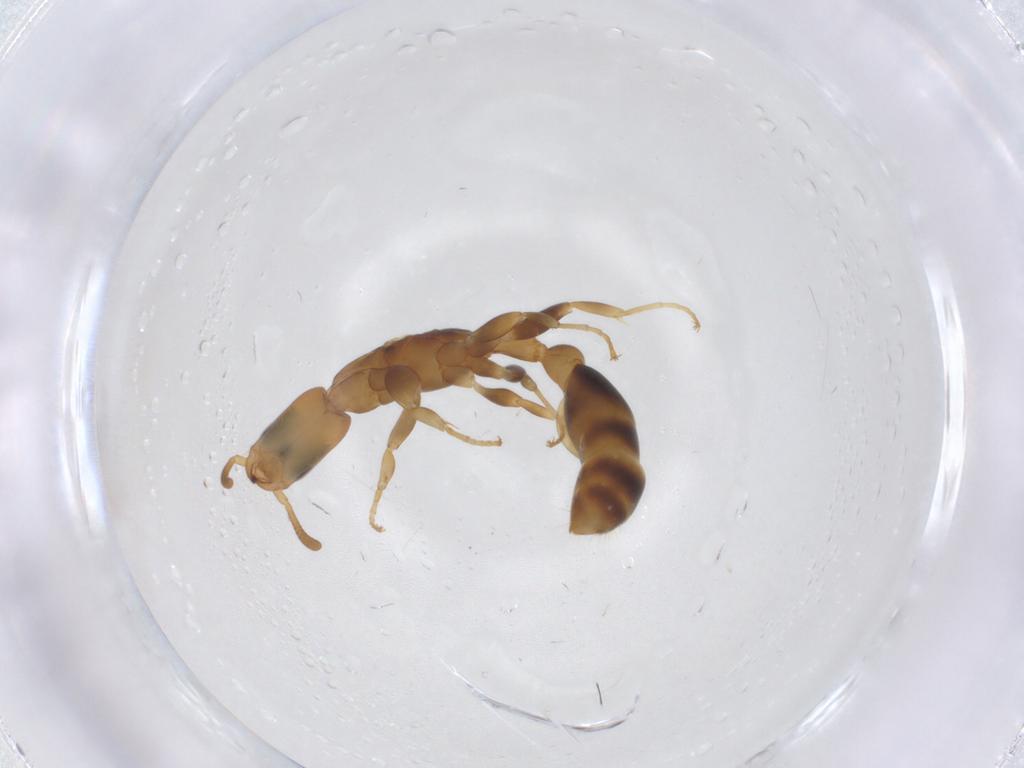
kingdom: Animalia
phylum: Arthropoda
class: Insecta
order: Hymenoptera
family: Formicidae
